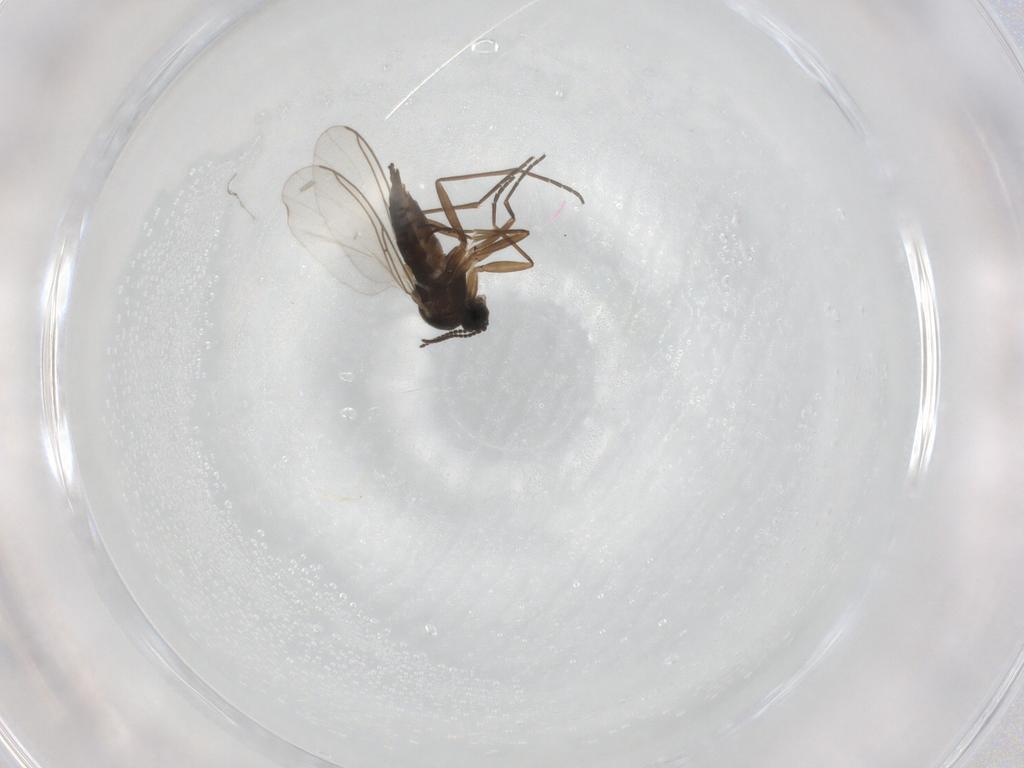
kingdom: Animalia
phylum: Arthropoda
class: Insecta
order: Diptera
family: Sciaridae
